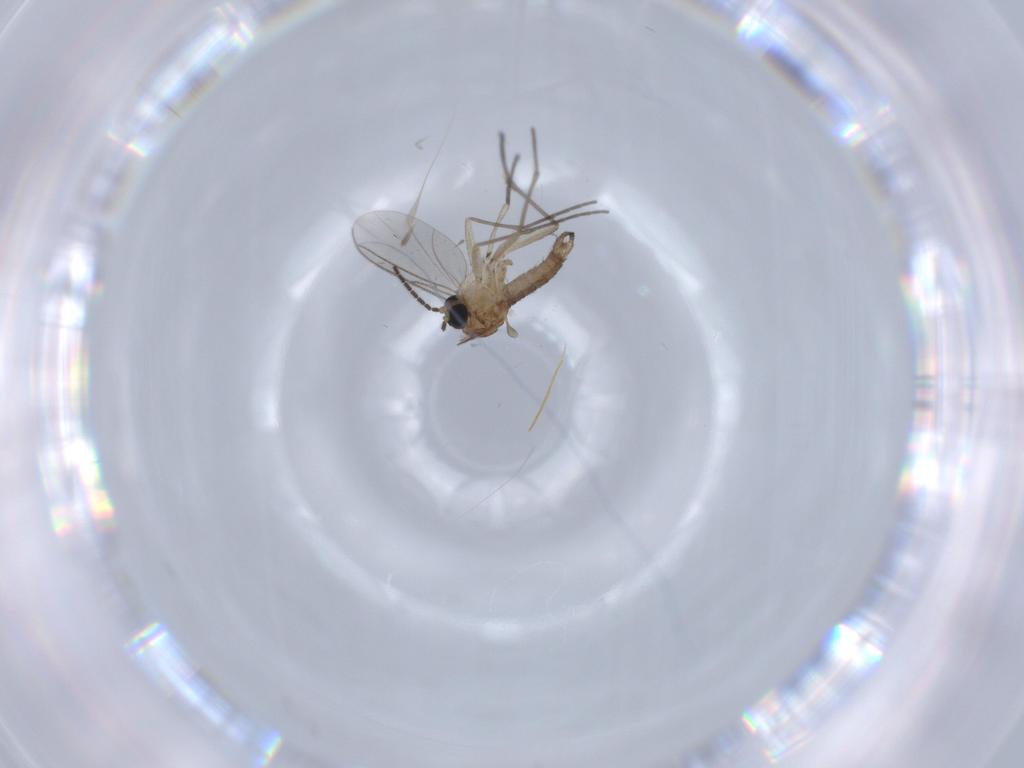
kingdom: Animalia
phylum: Arthropoda
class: Insecta
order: Diptera
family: Sciaridae
